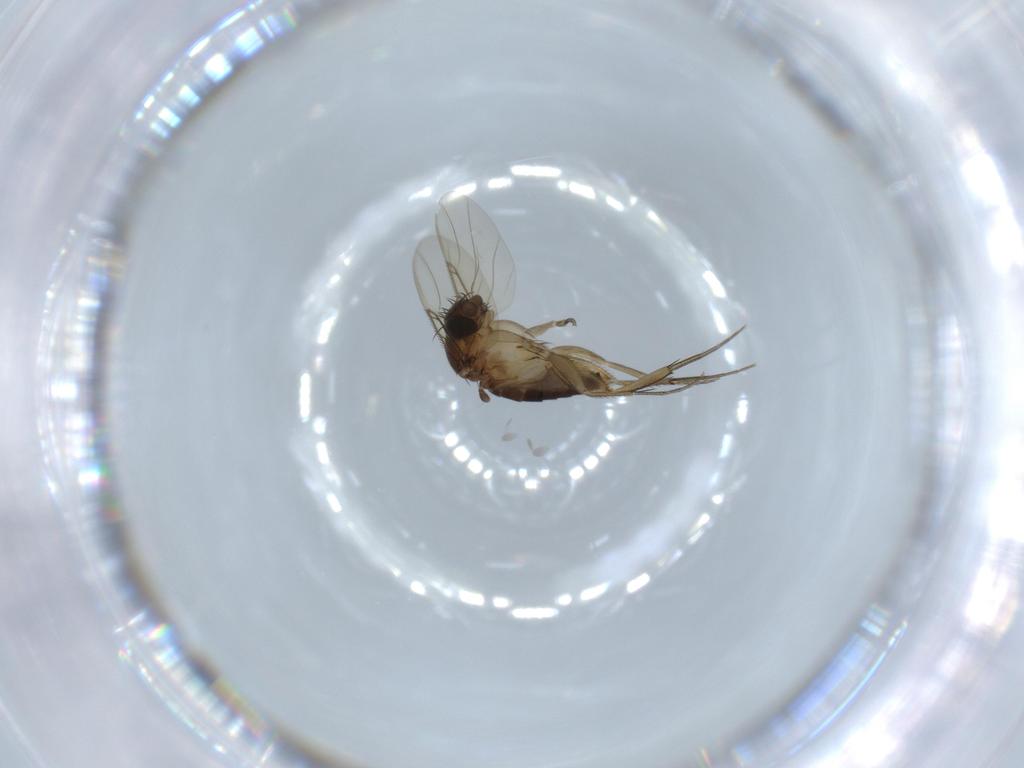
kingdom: Animalia
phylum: Arthropoda
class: Insecta
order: Diptera
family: Phoridae
